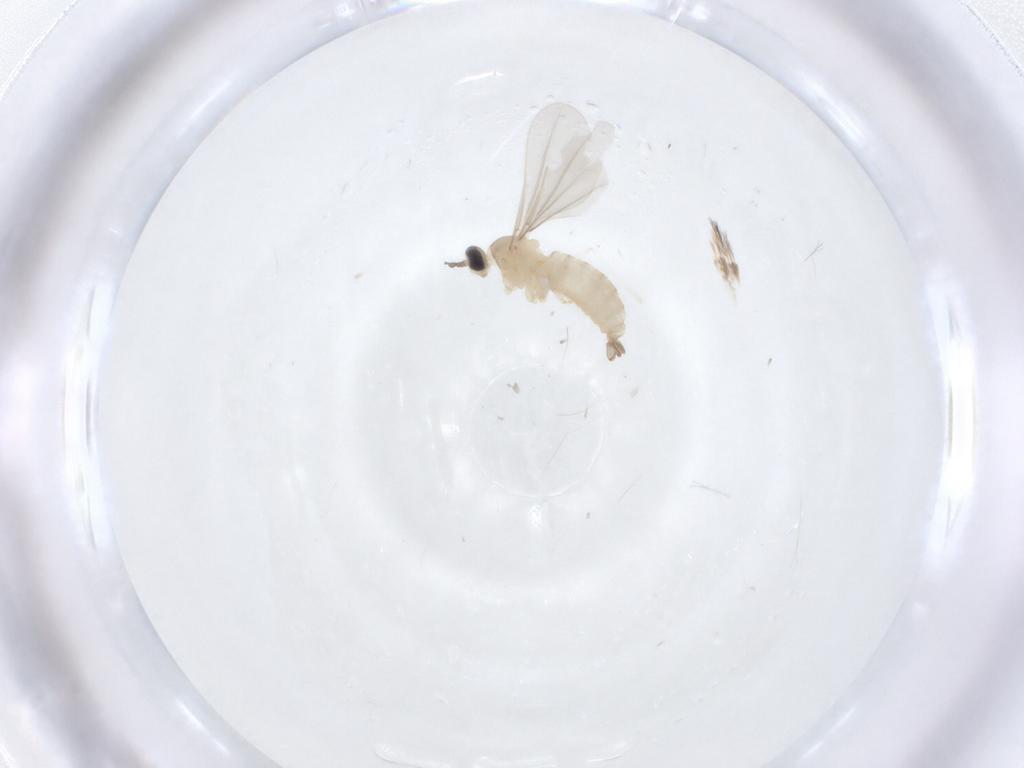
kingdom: Animalia
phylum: Arthropoda
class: Insecta
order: Diptera
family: Cecidomyiidae
